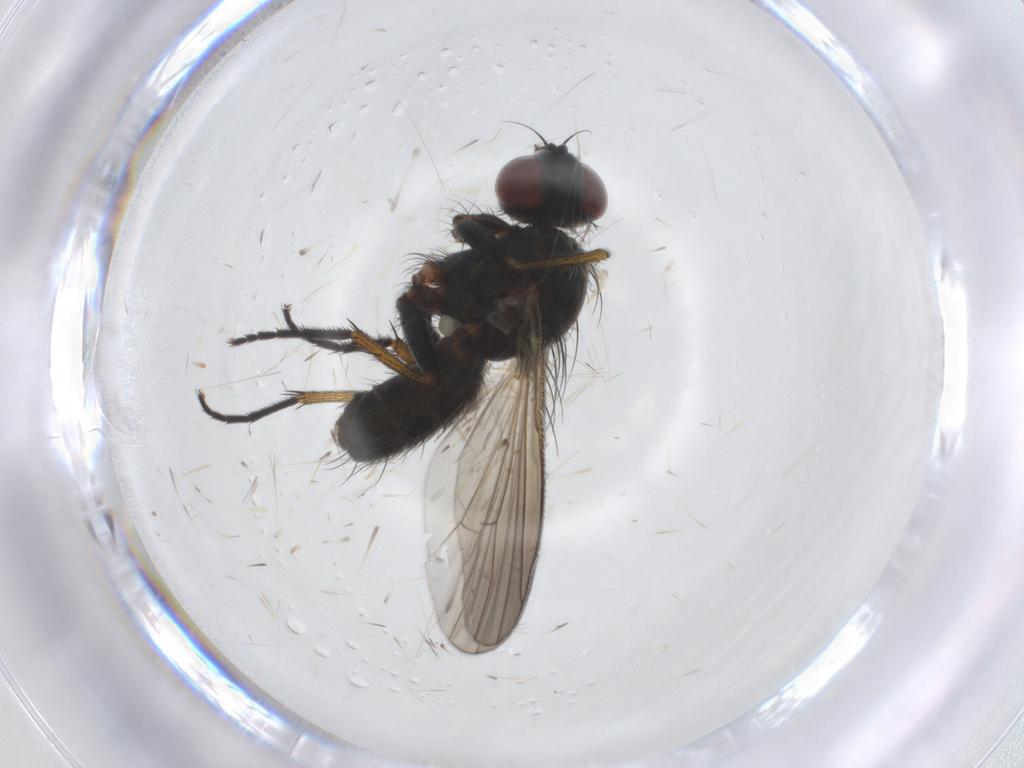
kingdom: Animalia
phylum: Arthropoda
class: Insecta
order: Diptera
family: Muscidae
